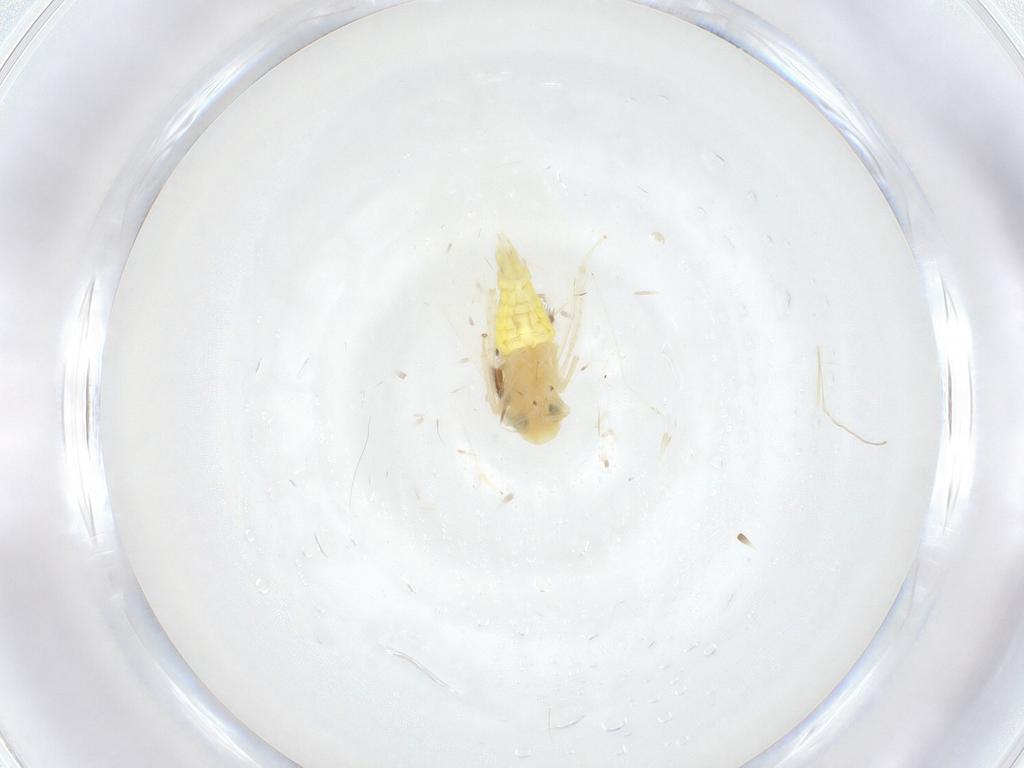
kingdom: Animalia
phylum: Arthropoda
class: Insecta
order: Hemiptera
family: Cicadellidae
